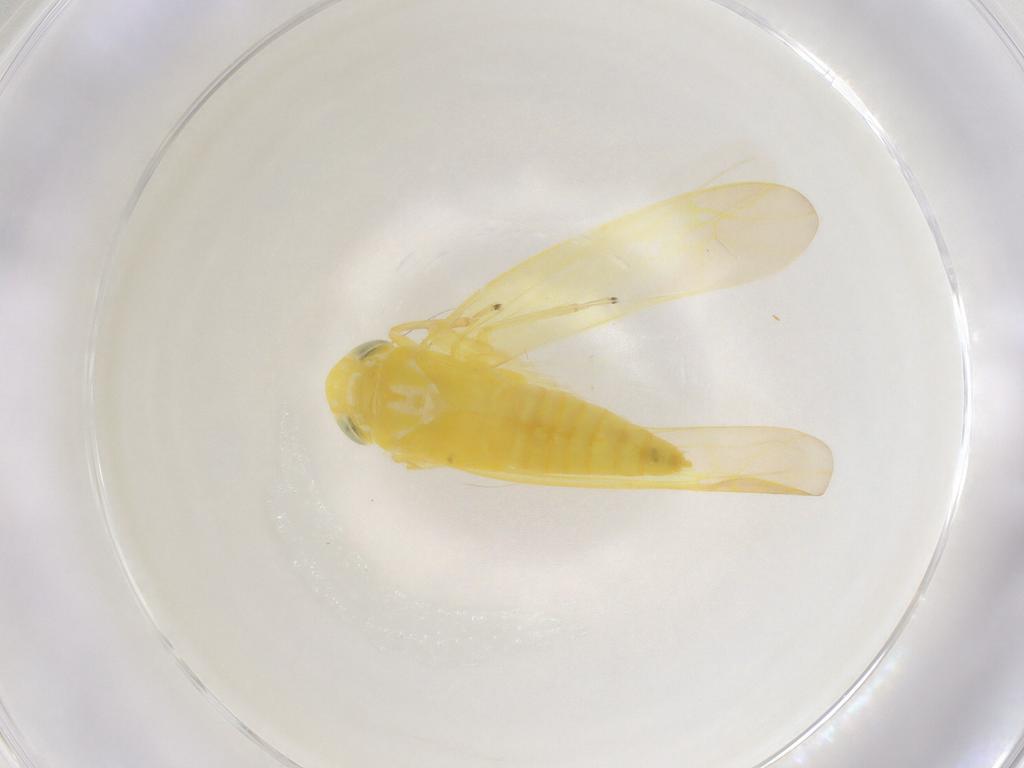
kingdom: Animalia
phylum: Arthropoda
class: Insecta
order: Hemiptera
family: Cicadellidae
